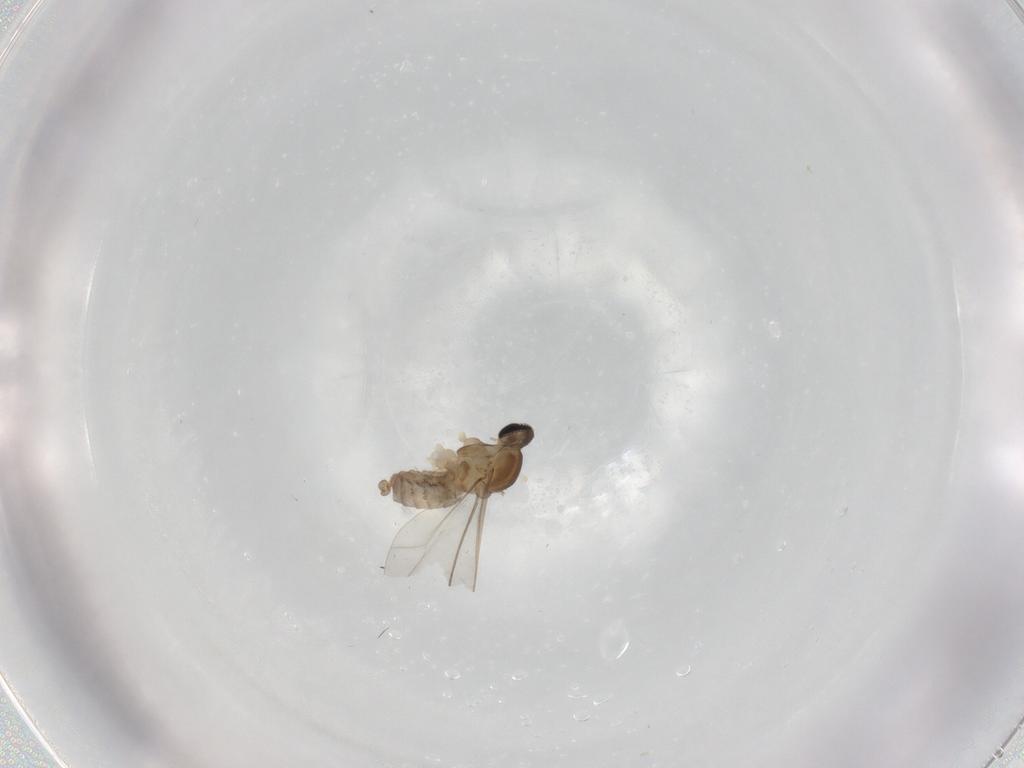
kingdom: Animalia
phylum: Arthropoda
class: Insecta
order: Diptera
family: Cecidomyiidae
